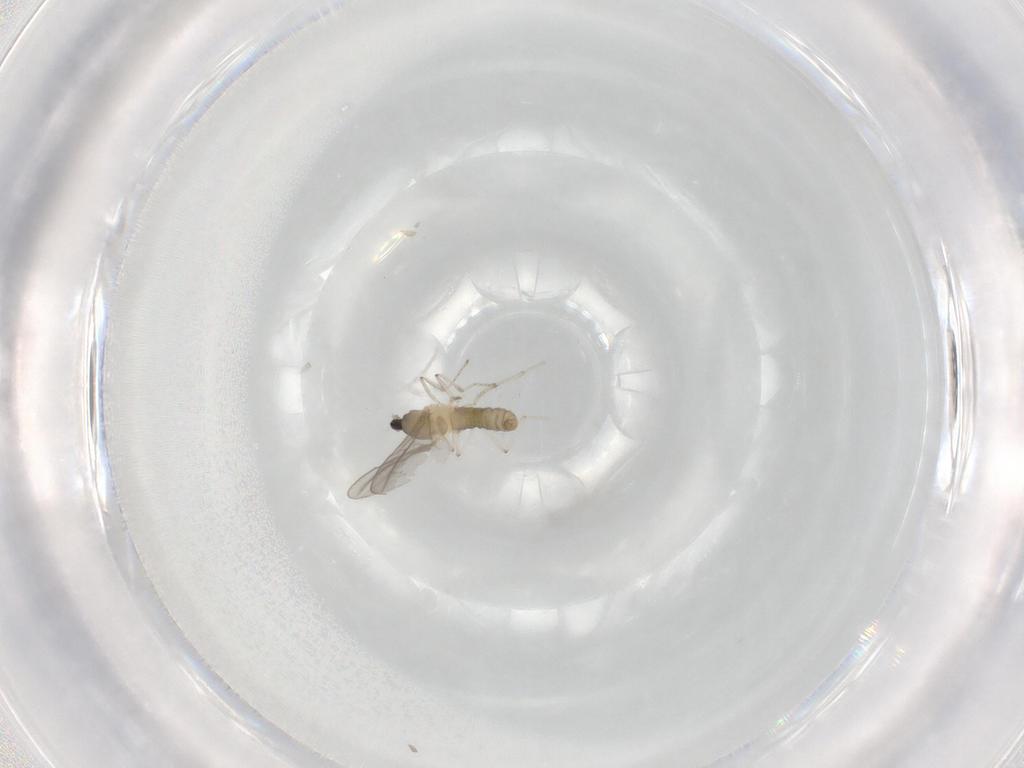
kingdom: Animalia
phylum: Arthropoda
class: Insecta
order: Diptera
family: Cecidomyiidae
